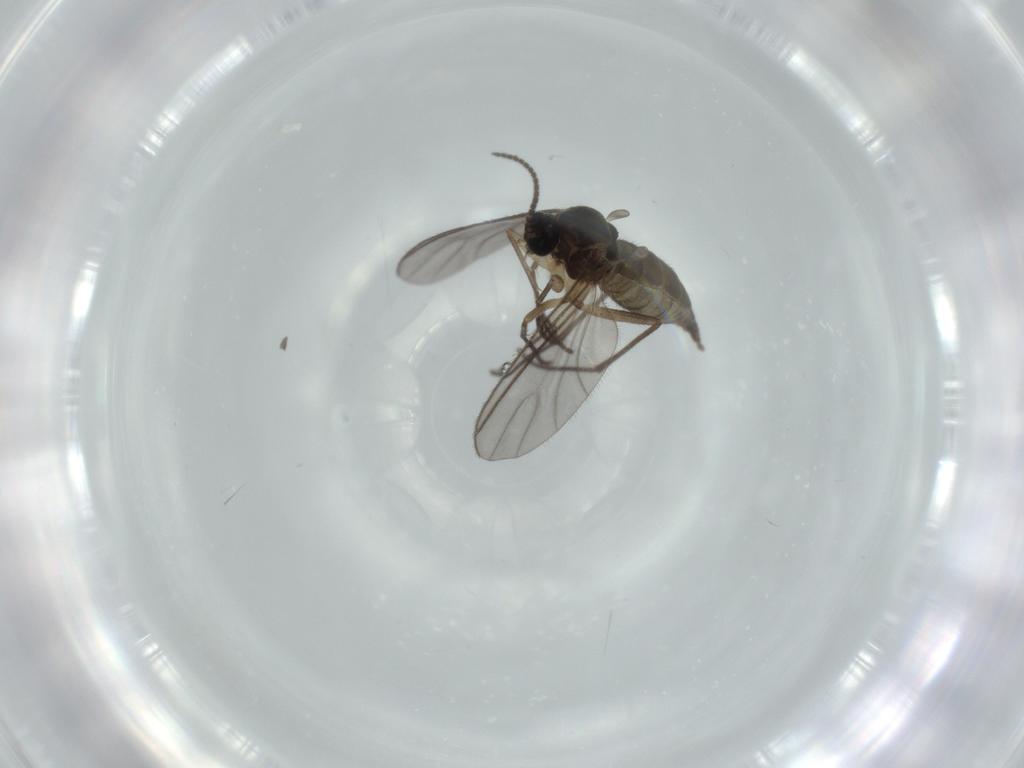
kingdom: Animalia
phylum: Arthropoda
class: Insecta
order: Diptera
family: Sciaridae
